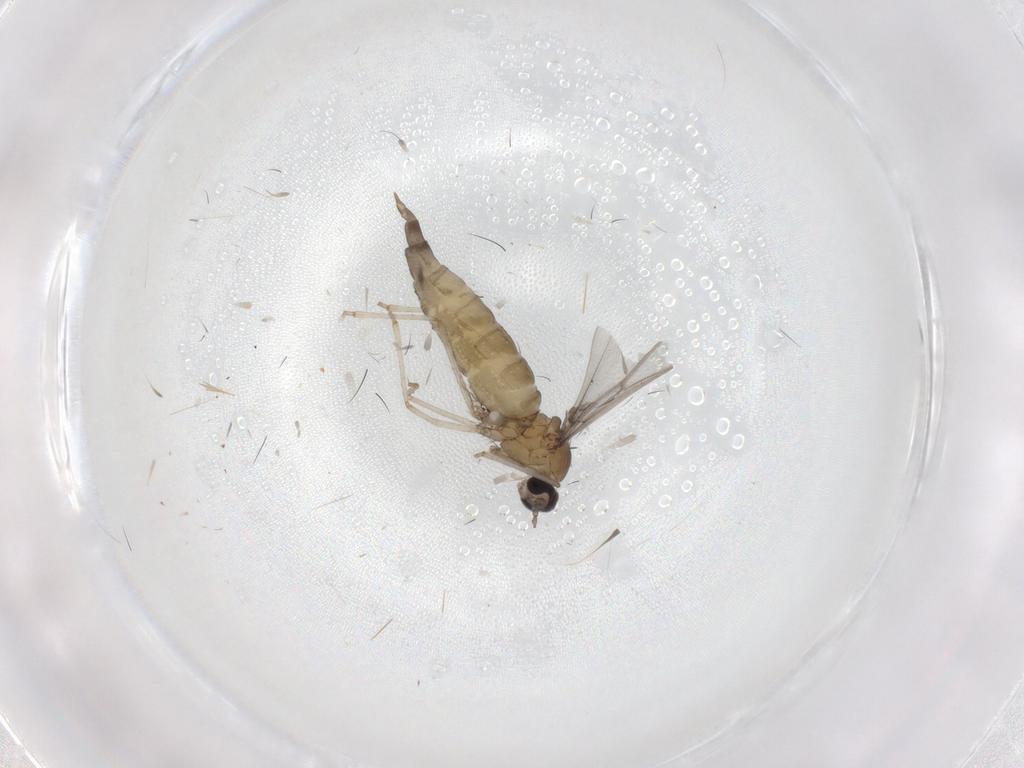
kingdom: Animalia
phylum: Arthropoda
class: Insecta
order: Diptera
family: Tabanidae
